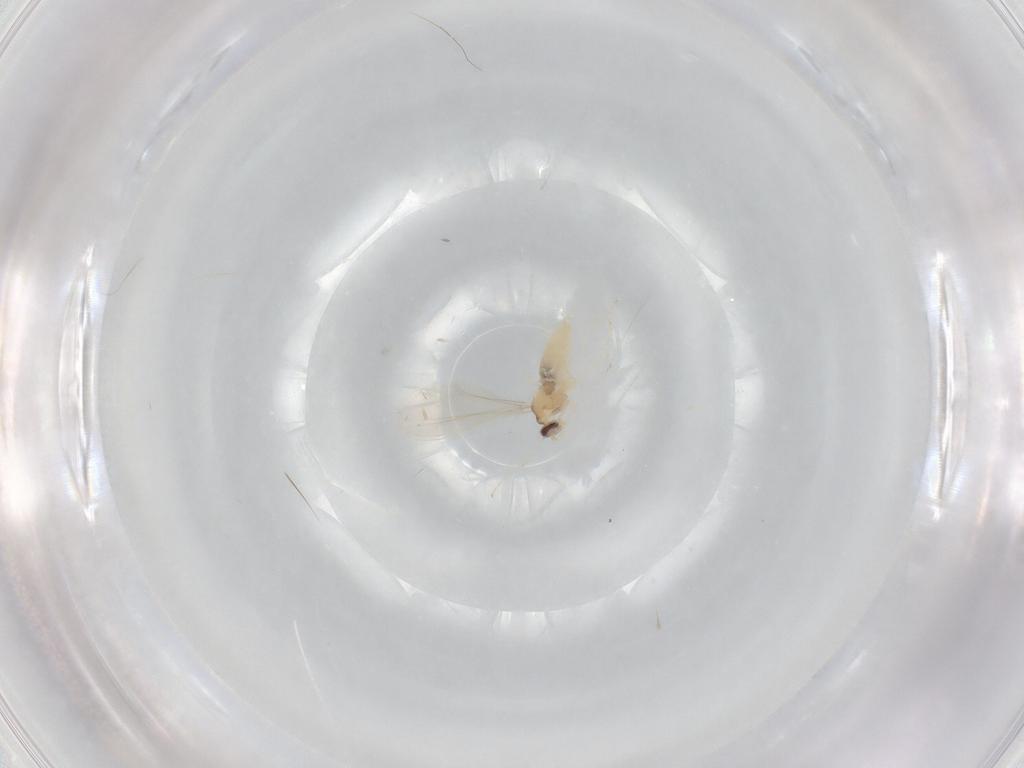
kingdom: Animalia
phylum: Arthropoda
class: Insecta
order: Diptera
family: Cecidomyiidae
